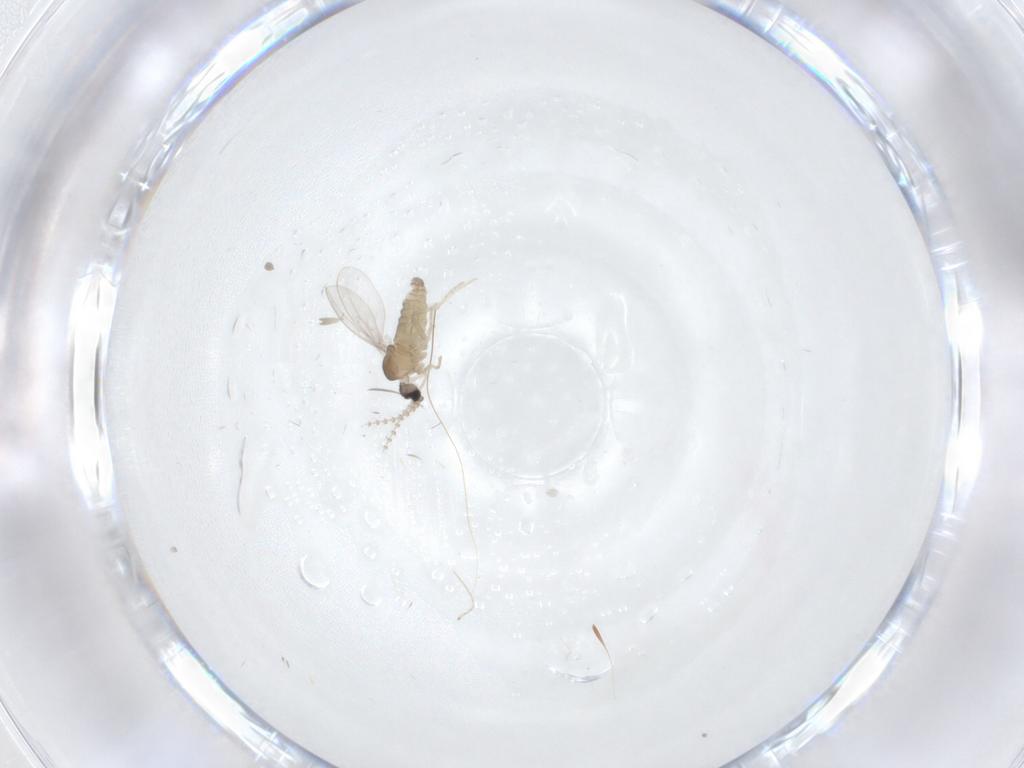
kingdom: Animalia
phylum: Arthropoda
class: Insecta
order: Diptera
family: Cecidomyiidae
